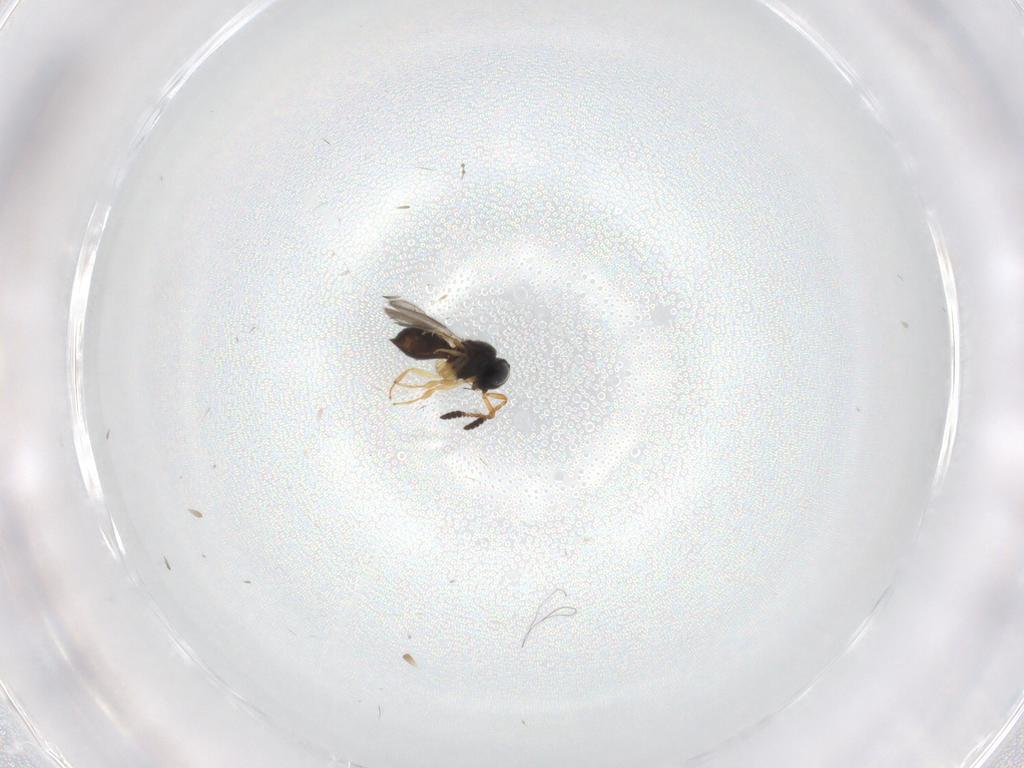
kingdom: Animalia
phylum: Arthropoda
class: Insecta
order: Hymenoptera
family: Scelionidae
